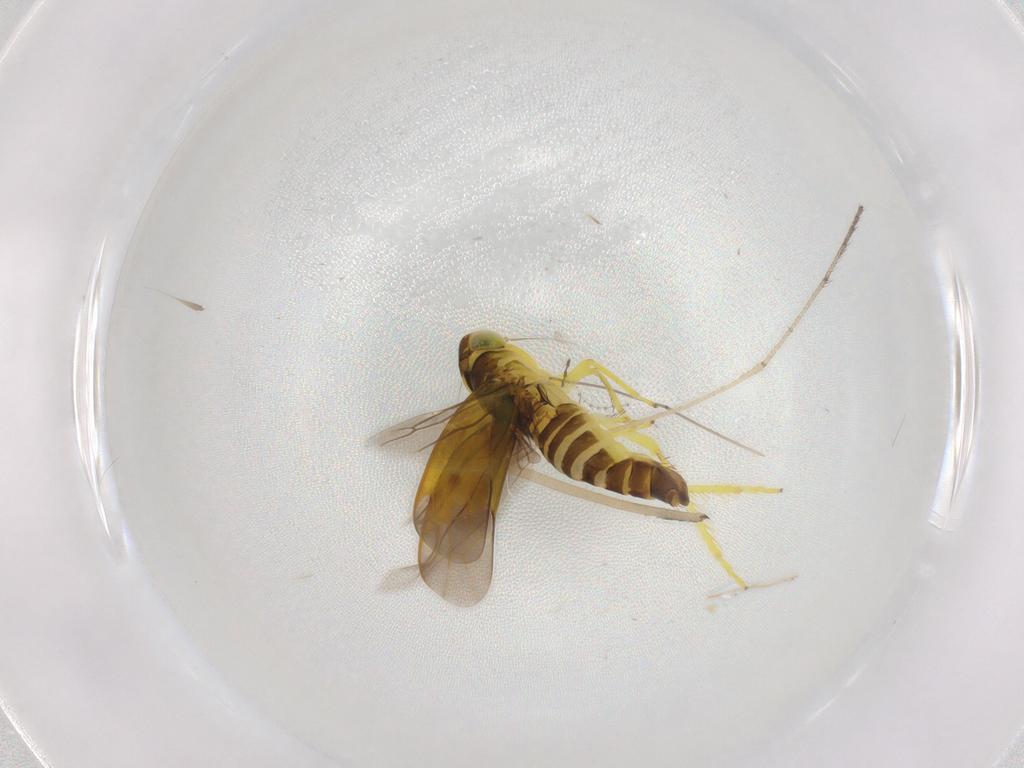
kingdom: Animalia
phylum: Arthropoda
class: Insecta
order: Hemiptera
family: Cicadellidae
